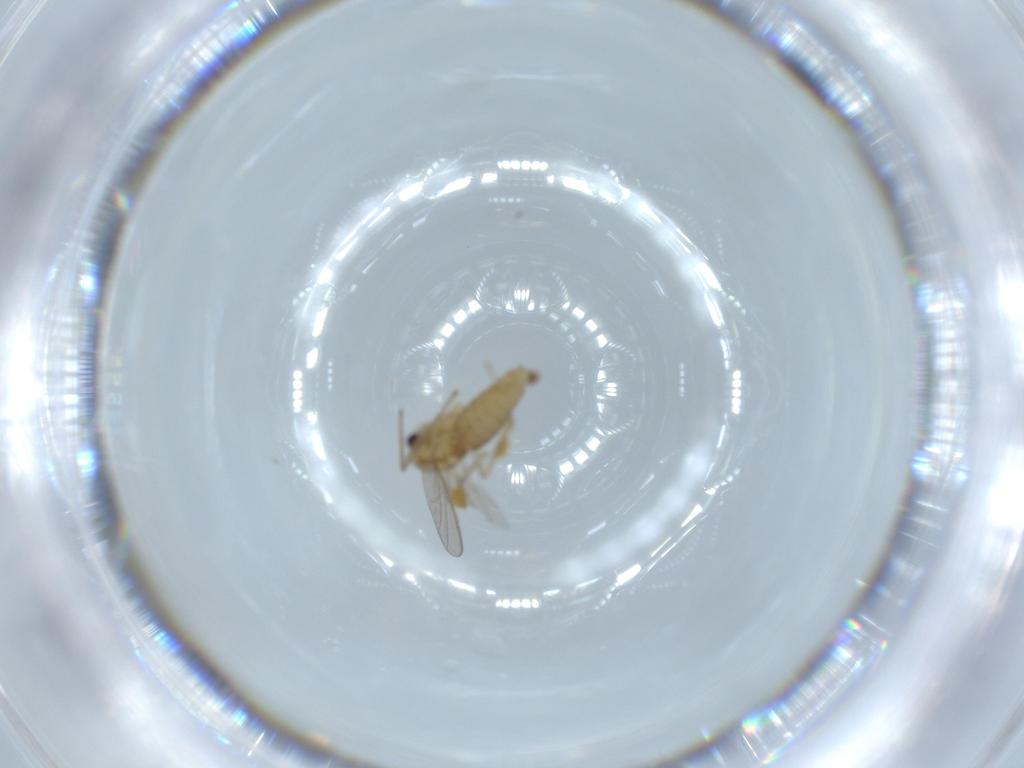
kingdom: Animalia
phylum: Arthropoda
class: Insecta
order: Diptera
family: Chironomidae
